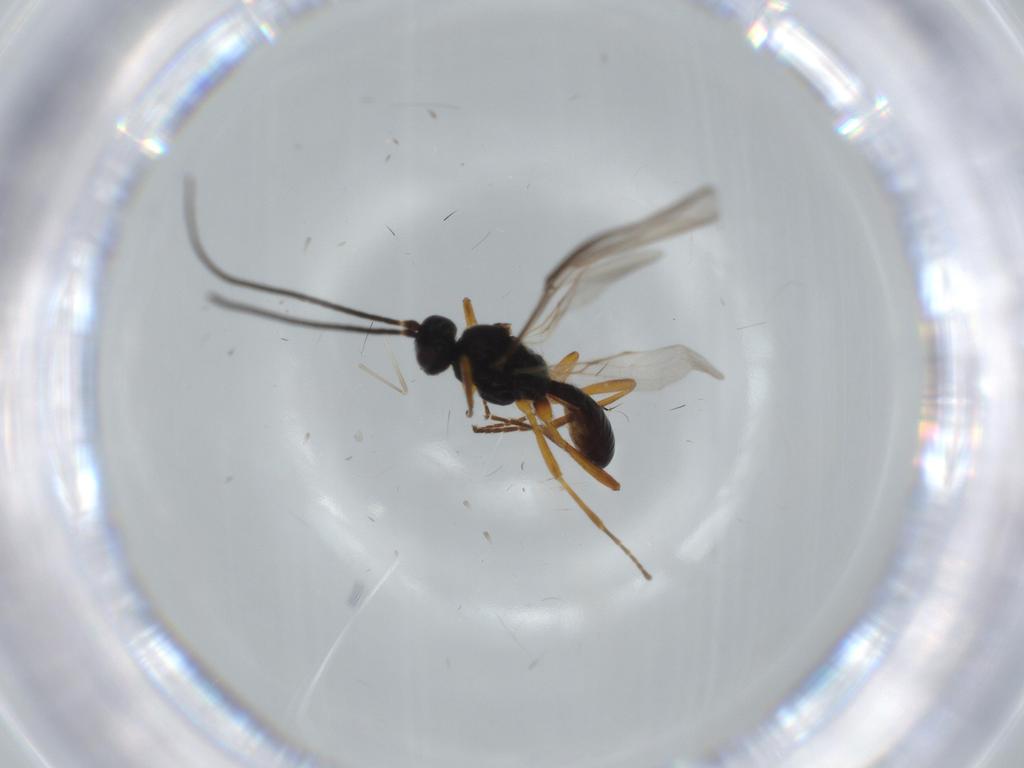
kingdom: Animalia
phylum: Arthropoda
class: Insecta
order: Hymenoptera
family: Braconidae
